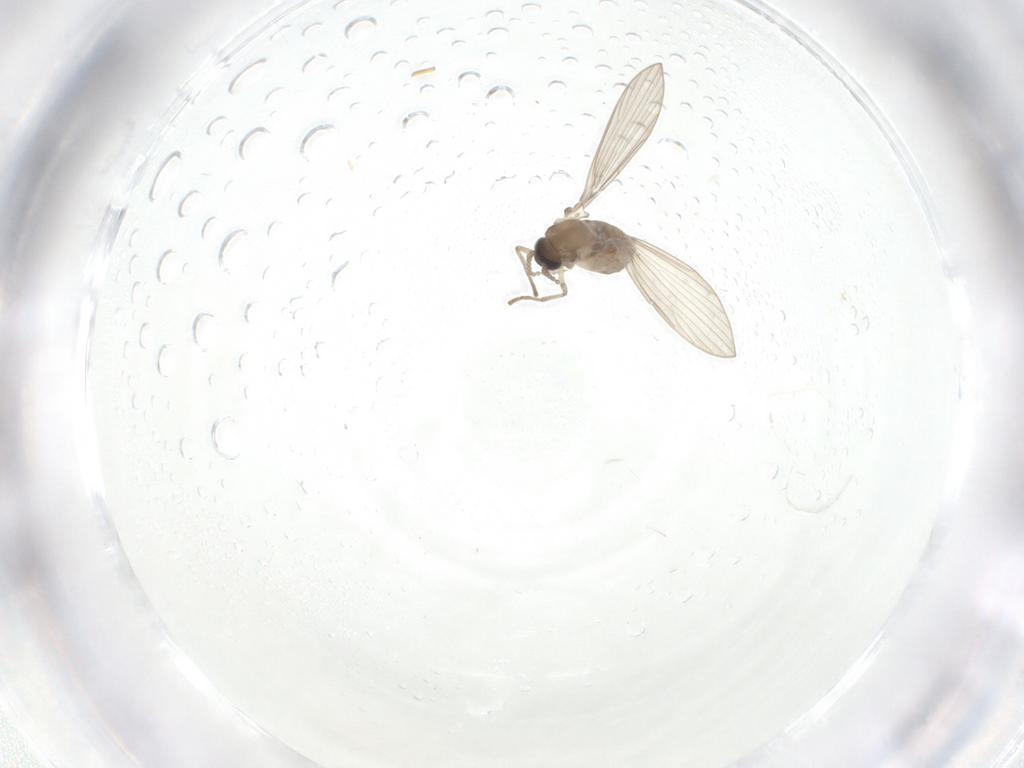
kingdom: Animalia
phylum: Arthropoda
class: Insecta
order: Diptera
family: Psychodidae
